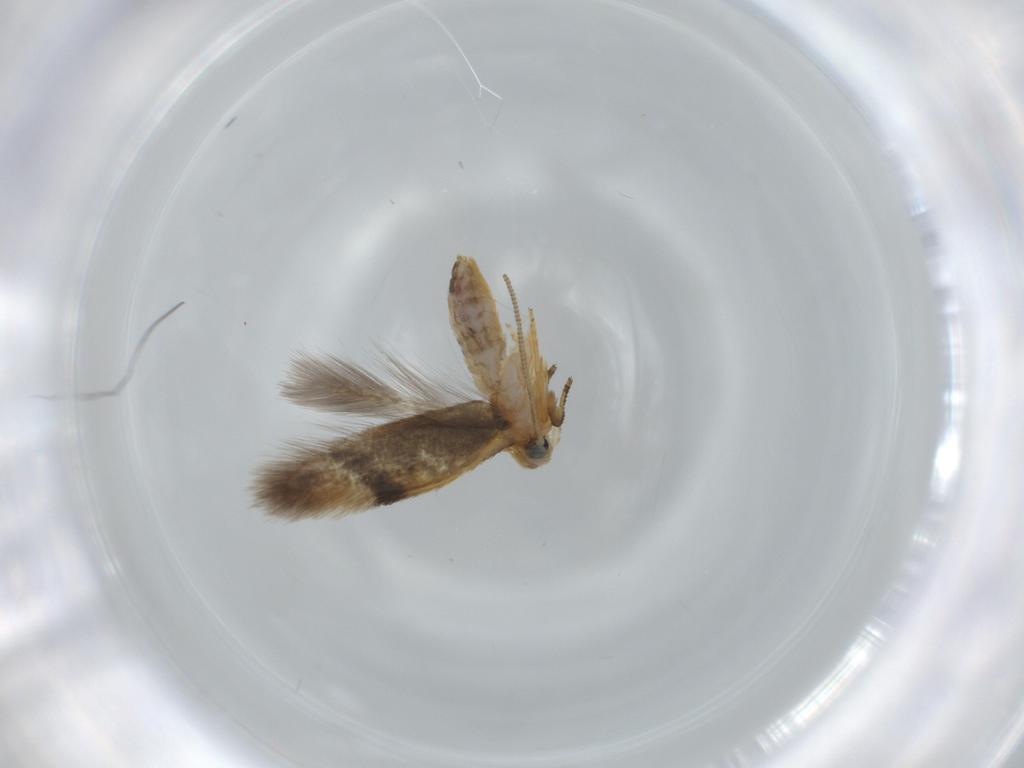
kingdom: Animalia
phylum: Arthropoda
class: Insecta
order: Lepidoptera
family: Nepticulidae
